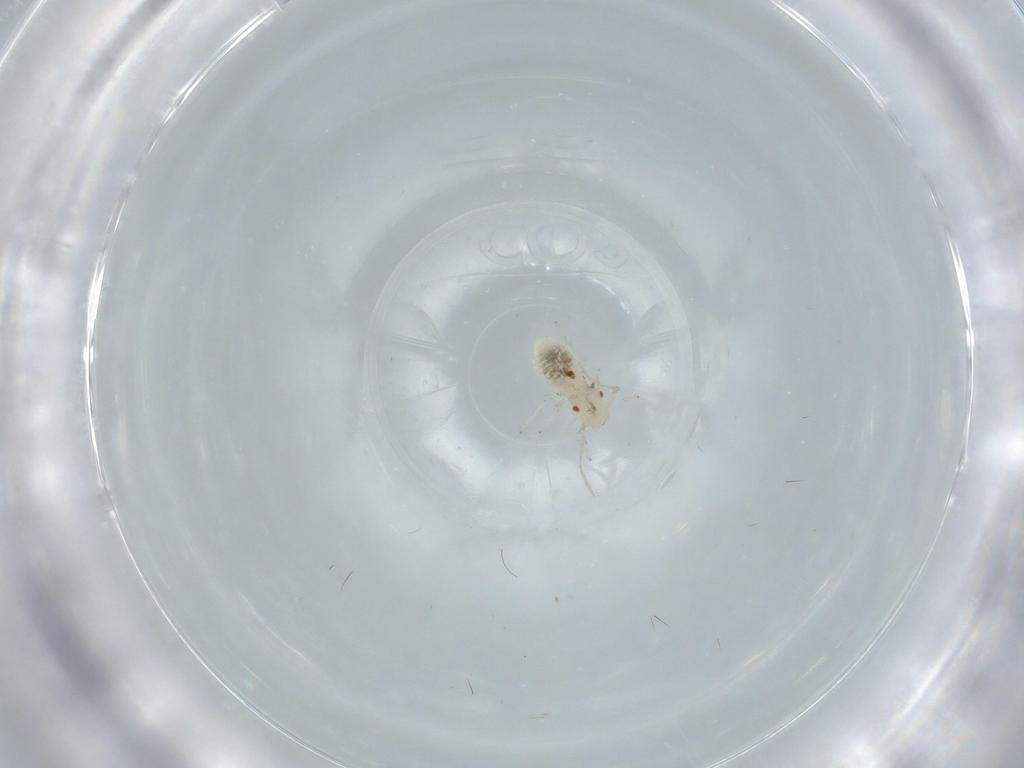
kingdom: Animalia
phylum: Arthropoda
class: Insecta
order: Psocodea
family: Caeciliusidae
